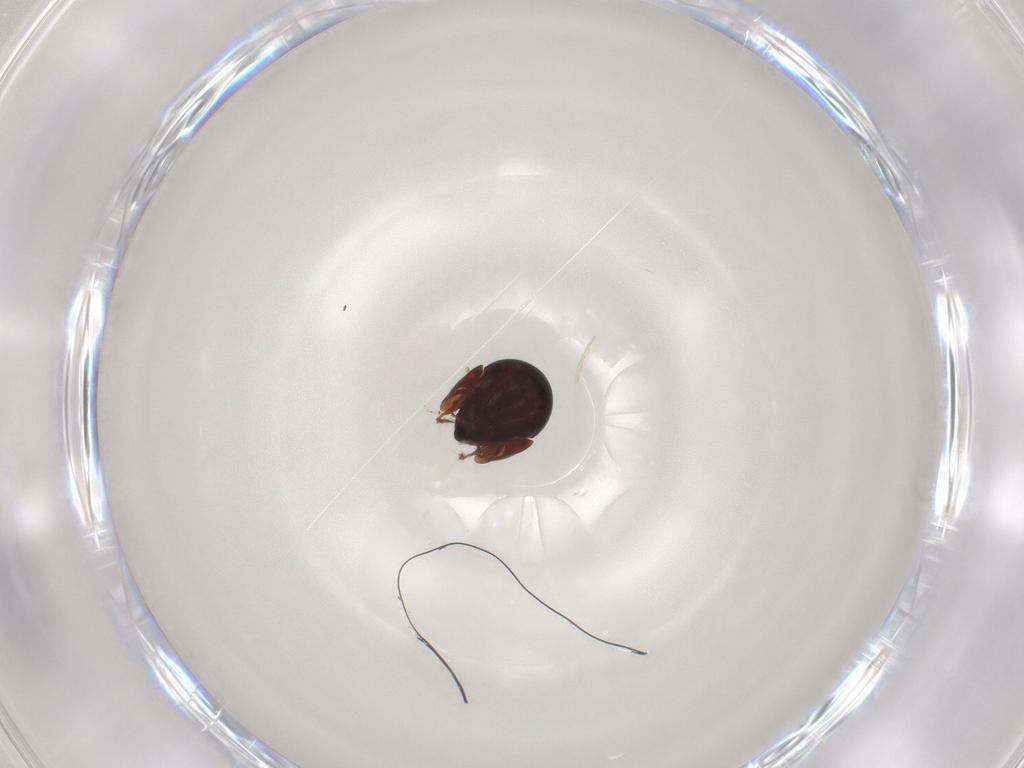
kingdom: Animalia
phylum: Arthropoda
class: Arachnida
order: Sarcoptiformes
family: Galumnidae
